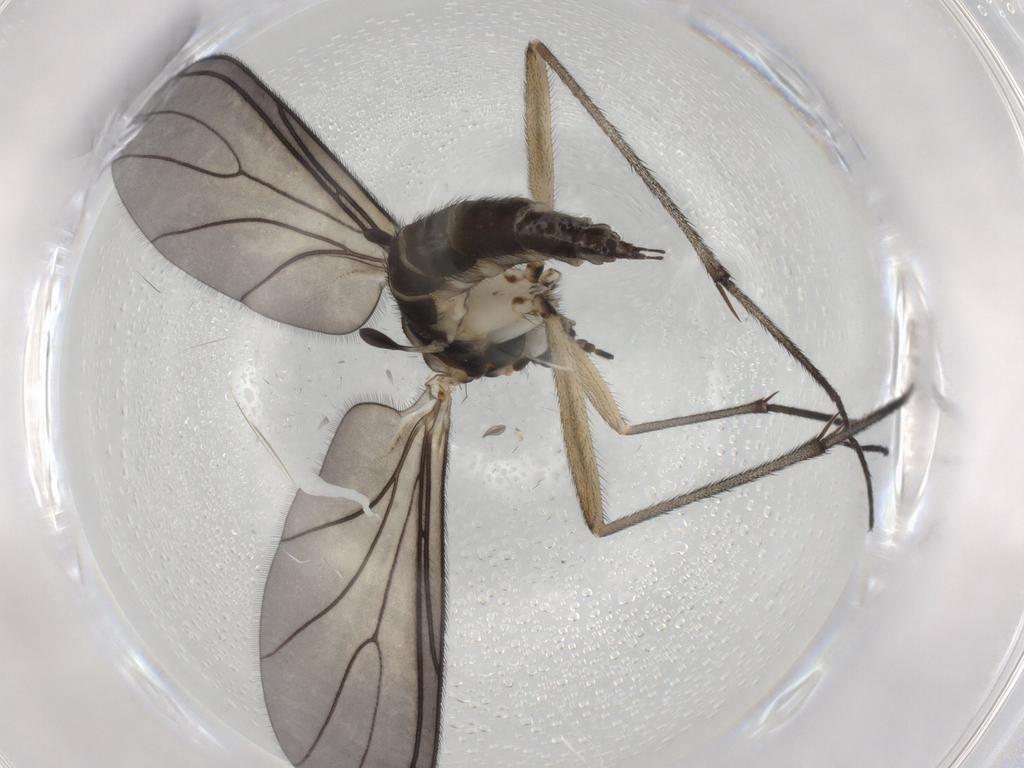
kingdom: Animalia
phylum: Arthropoda
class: Insecta
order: Diptera
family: Sciaridae
